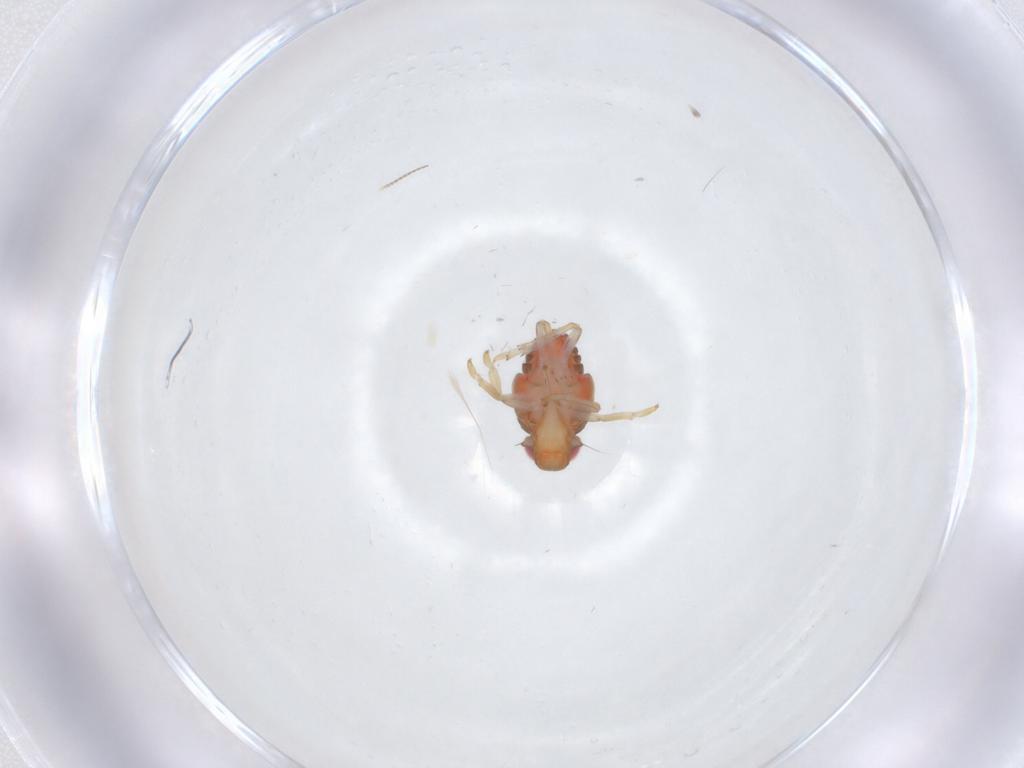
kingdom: Animalia
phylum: Arthropoda
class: Insecta
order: Hemiptera
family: Issidae
